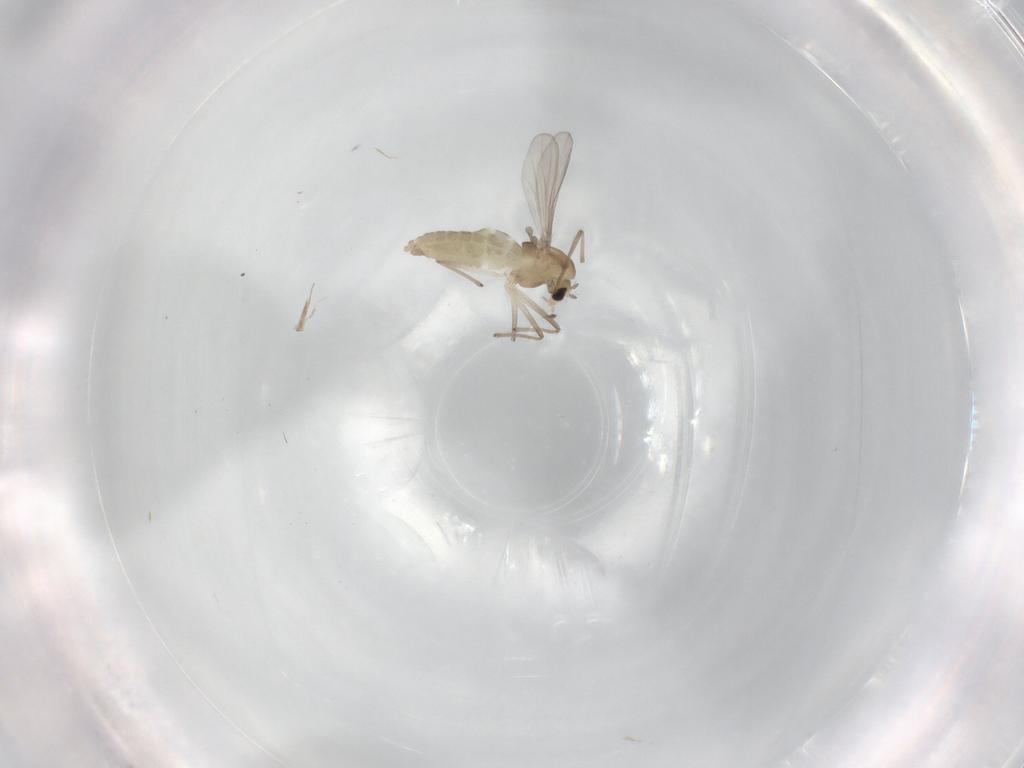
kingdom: Animalia
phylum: Arthropoda
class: Insecta
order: Diptera
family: Chironomidae
